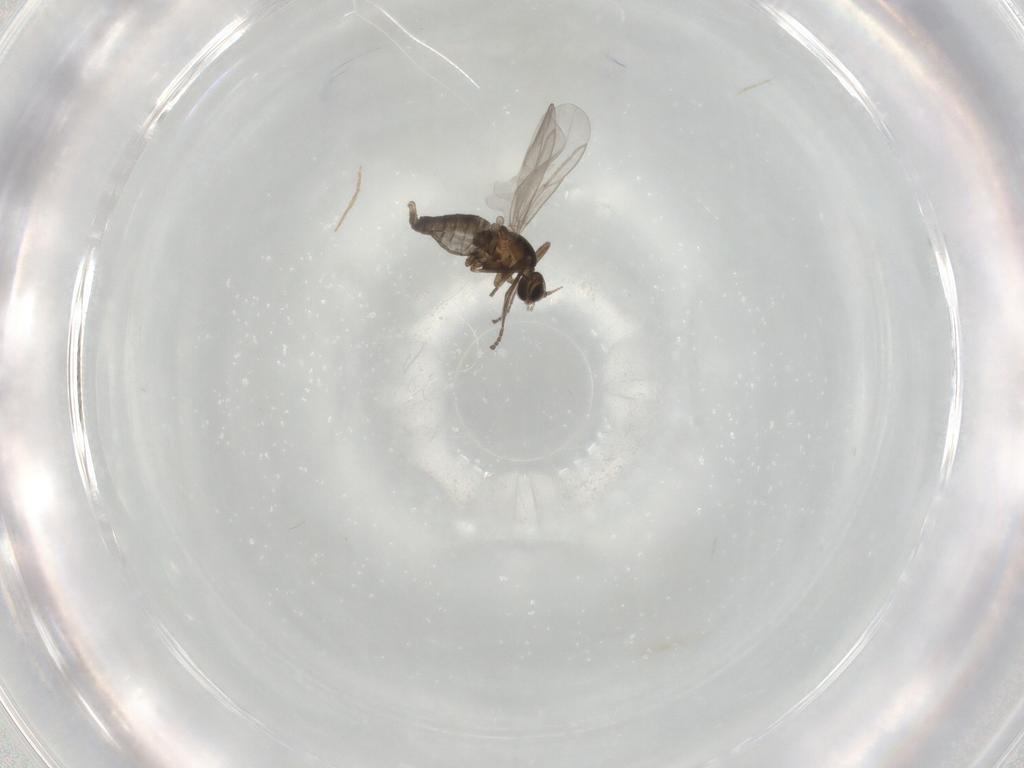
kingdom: Animalia
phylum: Arthropoda
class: Insecta
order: Diptera
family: Cecidomyiidae
